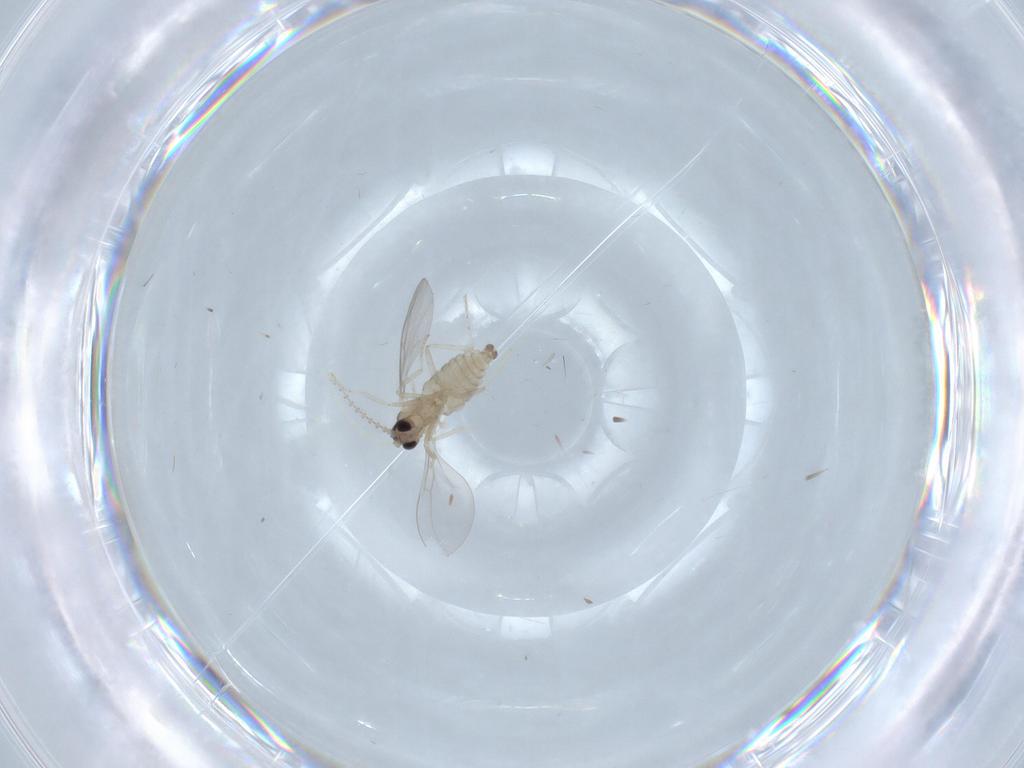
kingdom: Animalia
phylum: Arthropoda
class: Insecta
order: Diptera
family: Cecidomyiidae
